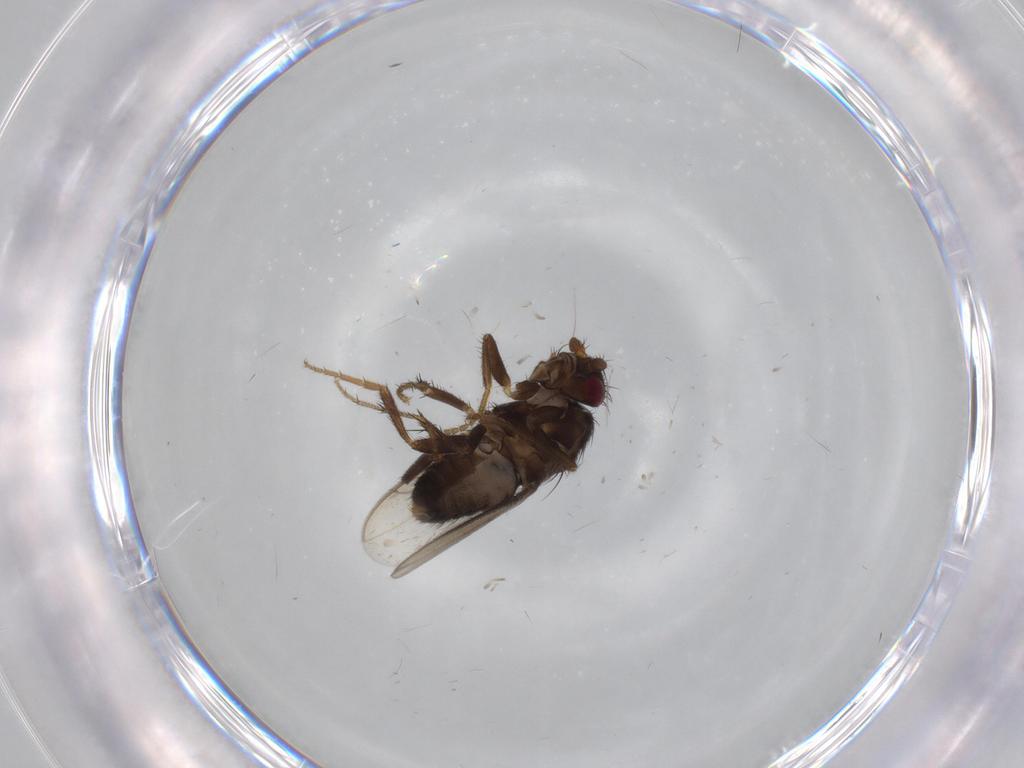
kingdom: Animalia
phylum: Arthropoda
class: Insecta
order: Diptera
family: Sphaeroceridae
